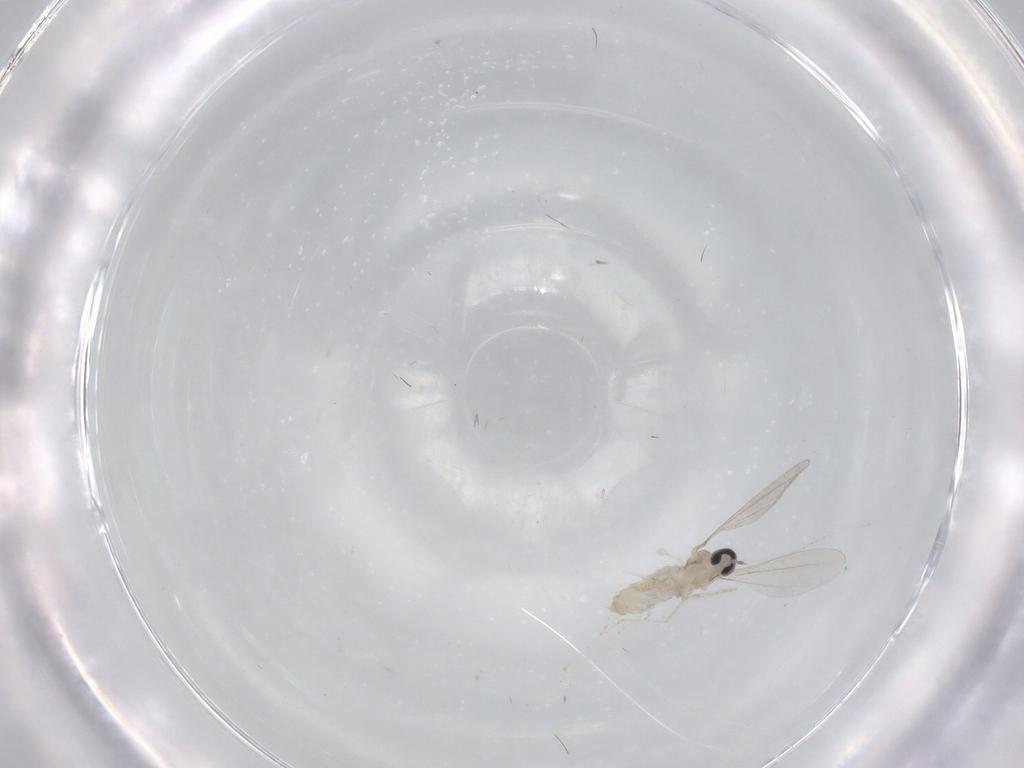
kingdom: Animalia
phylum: Arthropoda
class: Insecta
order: Diptera
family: Cecidomyiidae
